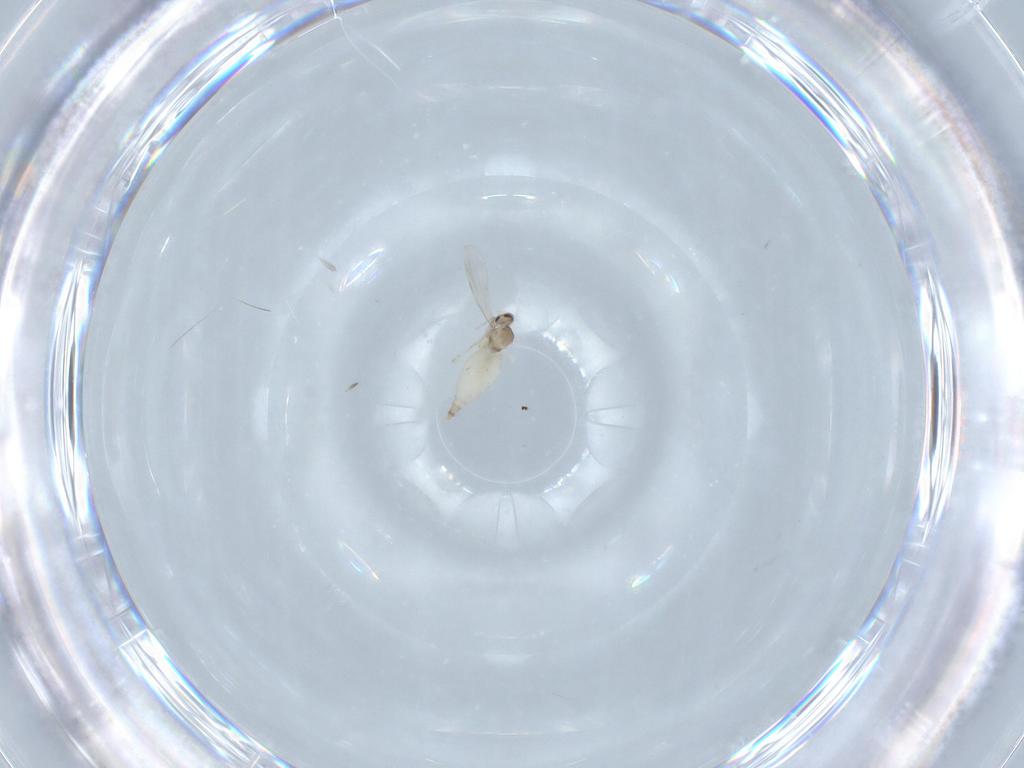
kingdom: Animalia
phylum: Arthropoda
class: Insecta
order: Diptera
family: Cecidomyiidae
